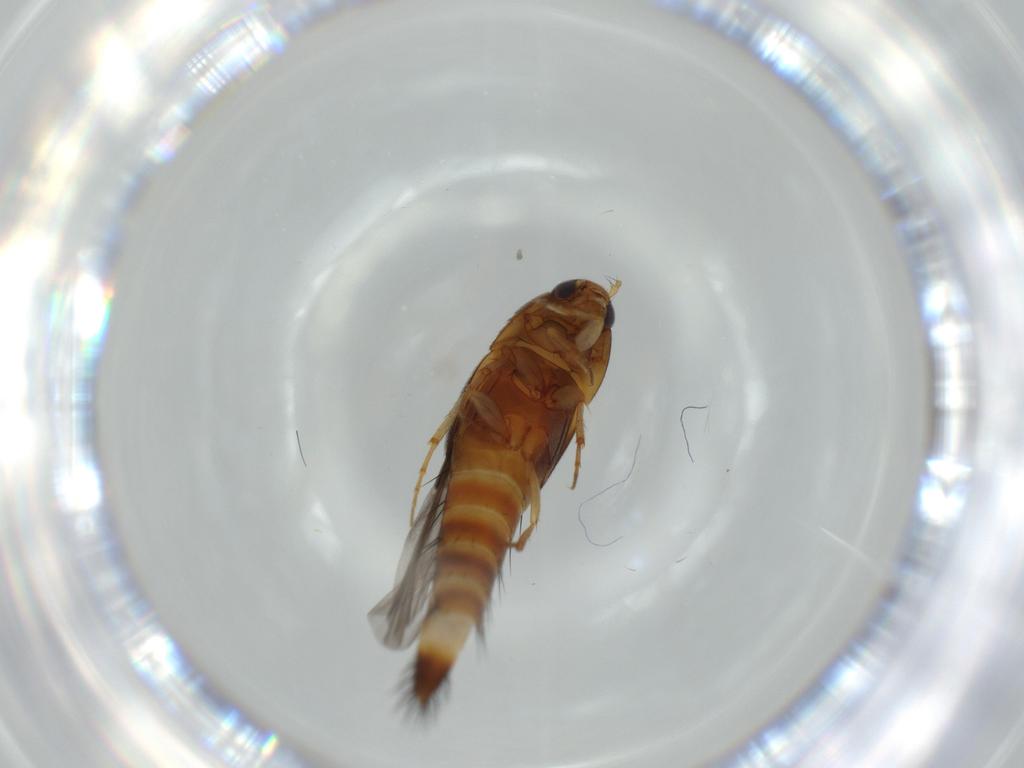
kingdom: Animalia
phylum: Arthropoda
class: Insecta
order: Coleoptera
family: Staphylinidae
